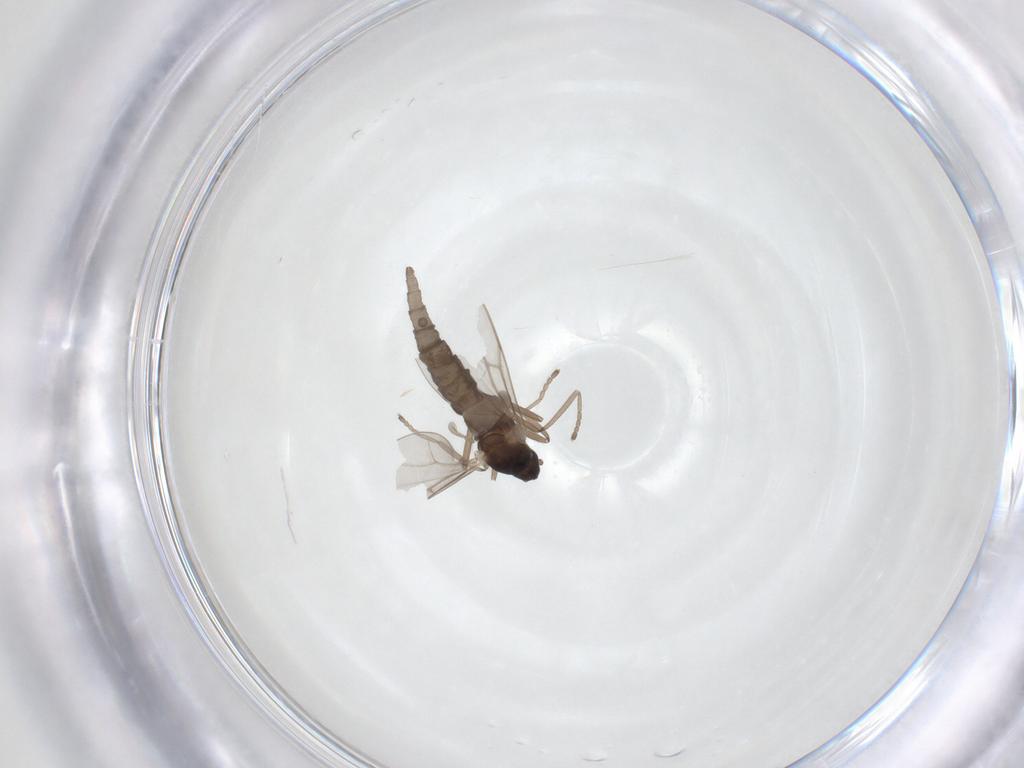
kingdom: Animalia
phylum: Arthropoda
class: Insecta
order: Diptera
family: Cecidomyiidae
